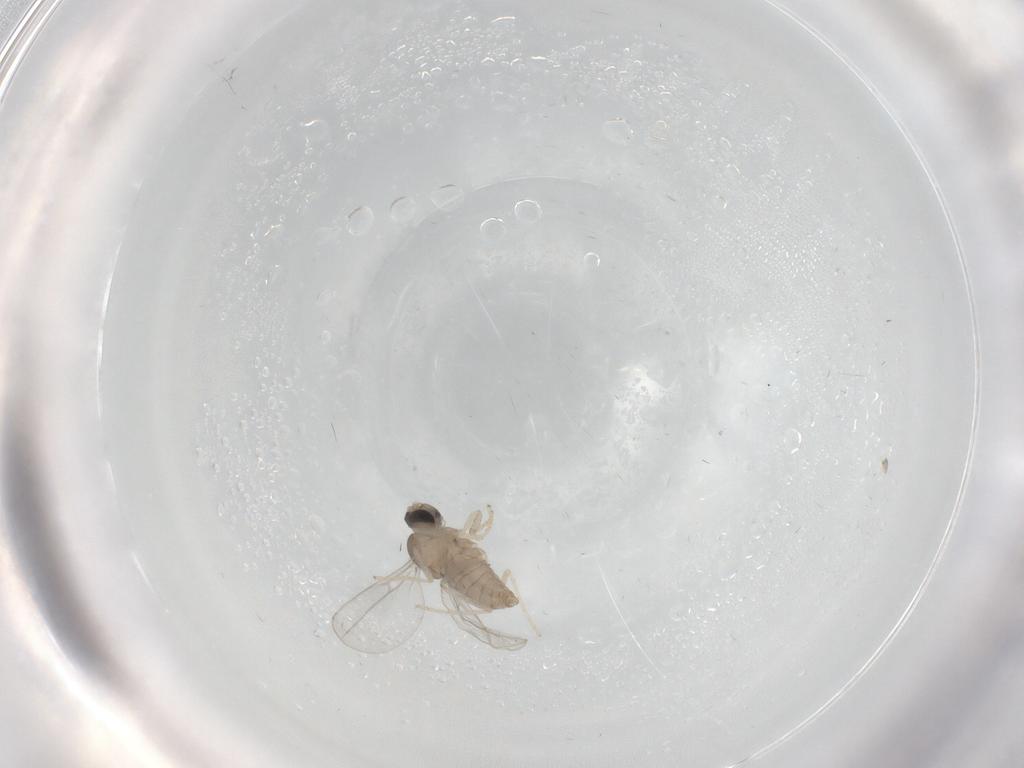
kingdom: Animalia
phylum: Arthropoda
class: Insecta
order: Diptera
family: Cecidomyiidae
